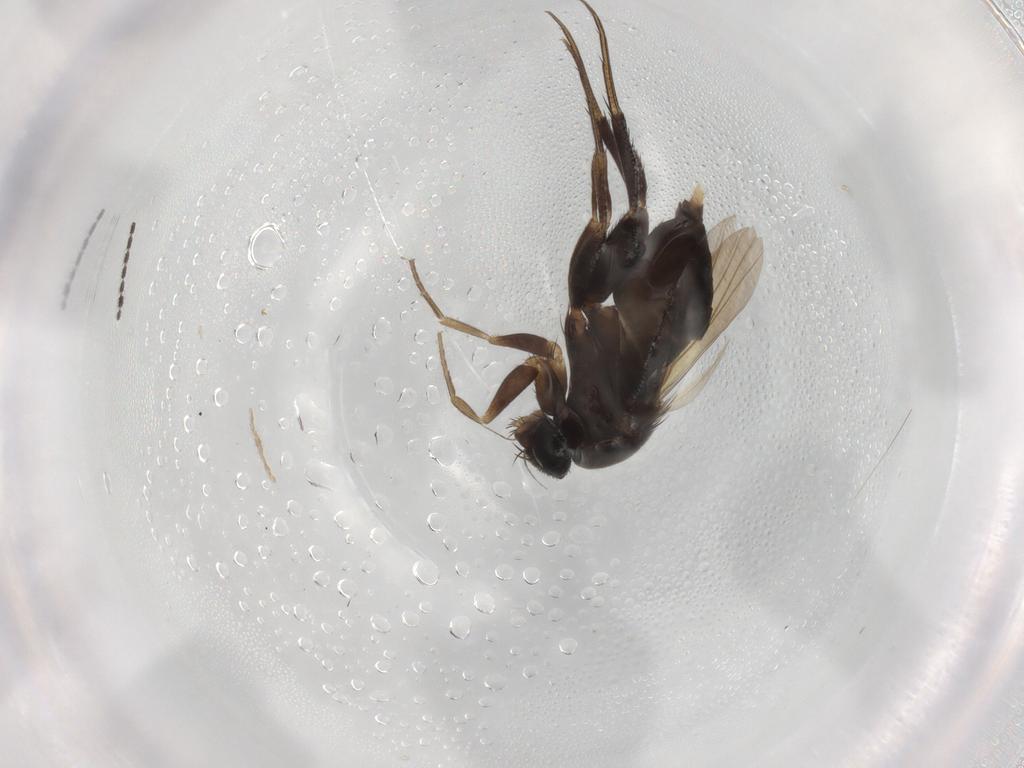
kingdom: Animalia
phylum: Arthropoda
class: Insecta
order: Diptera
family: Phoridae
